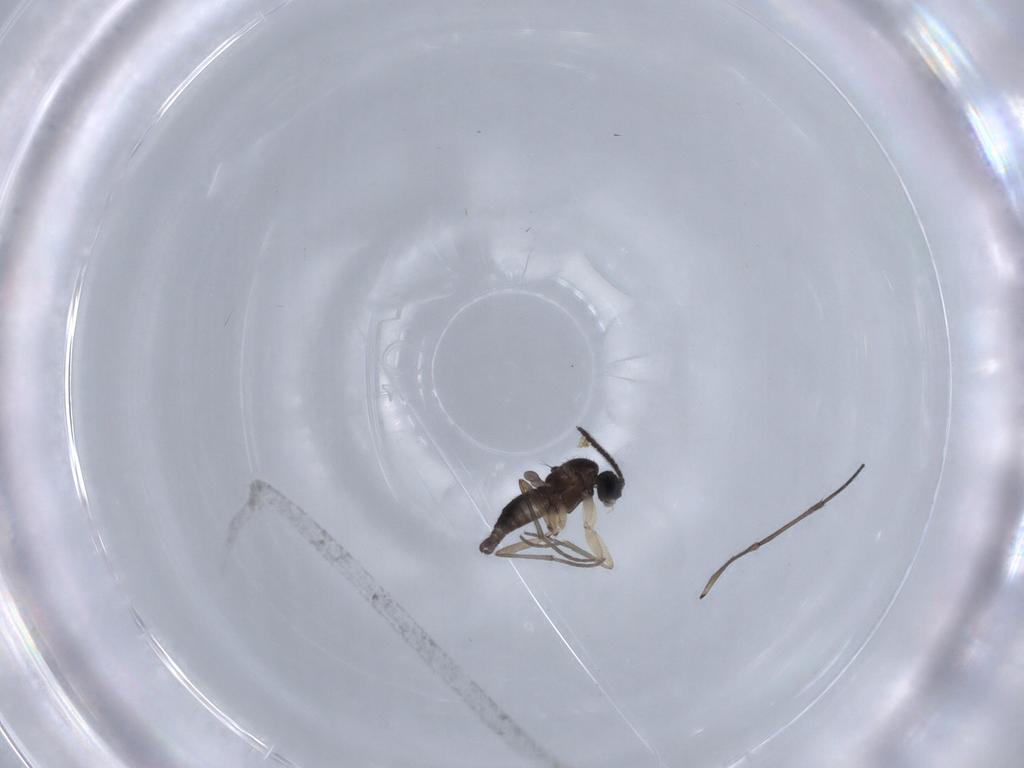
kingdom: Animalia
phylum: Arthropoda
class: Insecta
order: Diptera
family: Sciaridae
